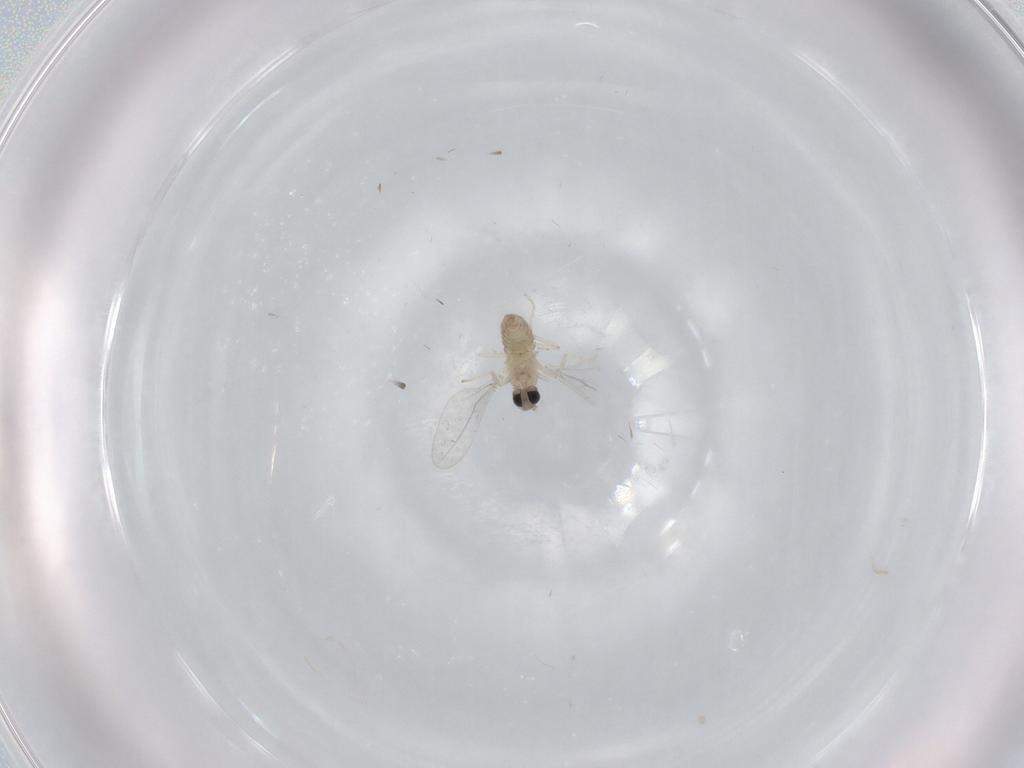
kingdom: Animalia
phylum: Arthropoda
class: Insecta
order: Diptera
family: Cecidomyiidae
